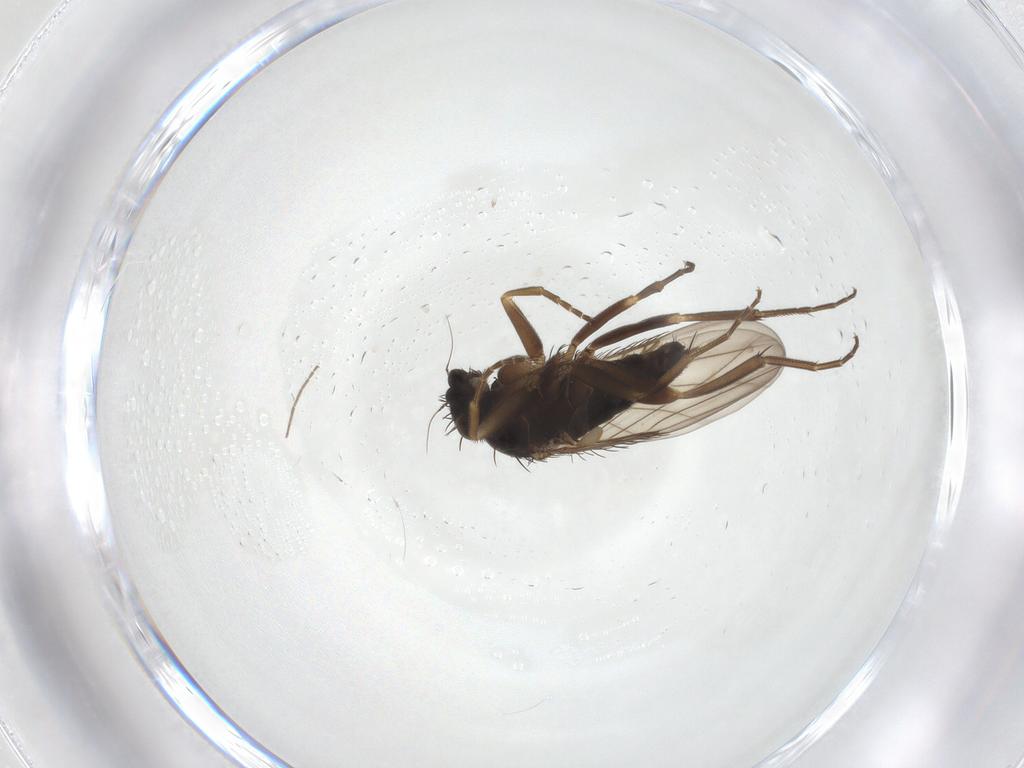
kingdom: Animalia
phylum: Arthropoda
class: Insecta
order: Diptera
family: Phoridae
